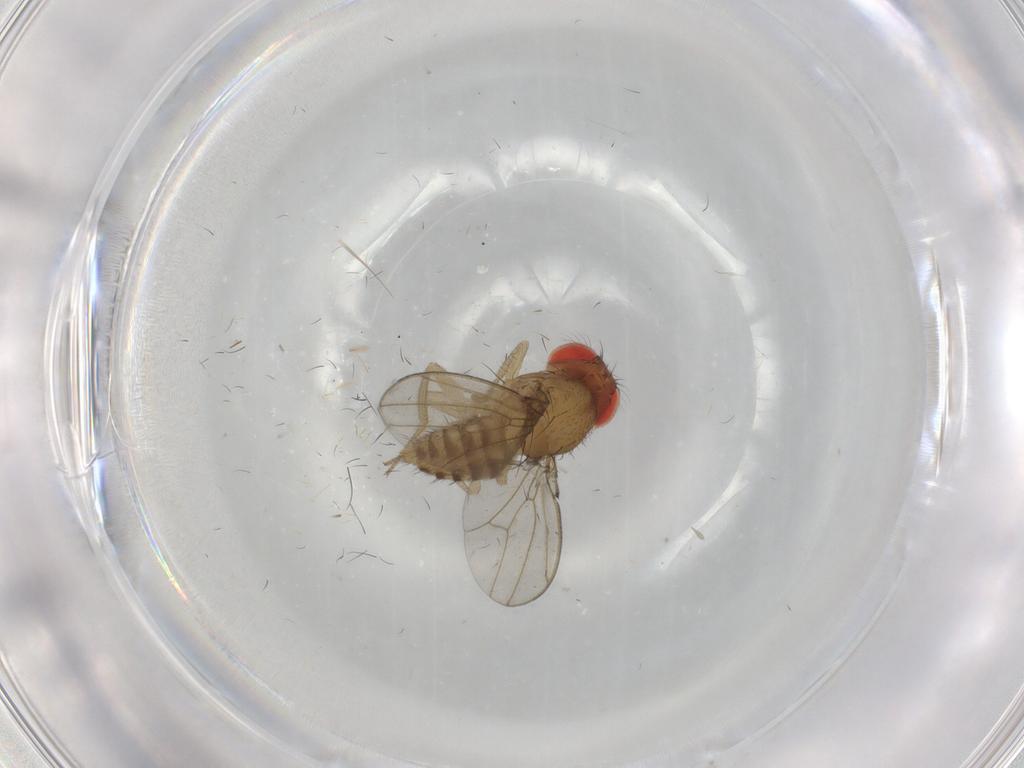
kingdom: Animalia
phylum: Arthropoda
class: Insecta
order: Diptera
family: Drosophilidae
